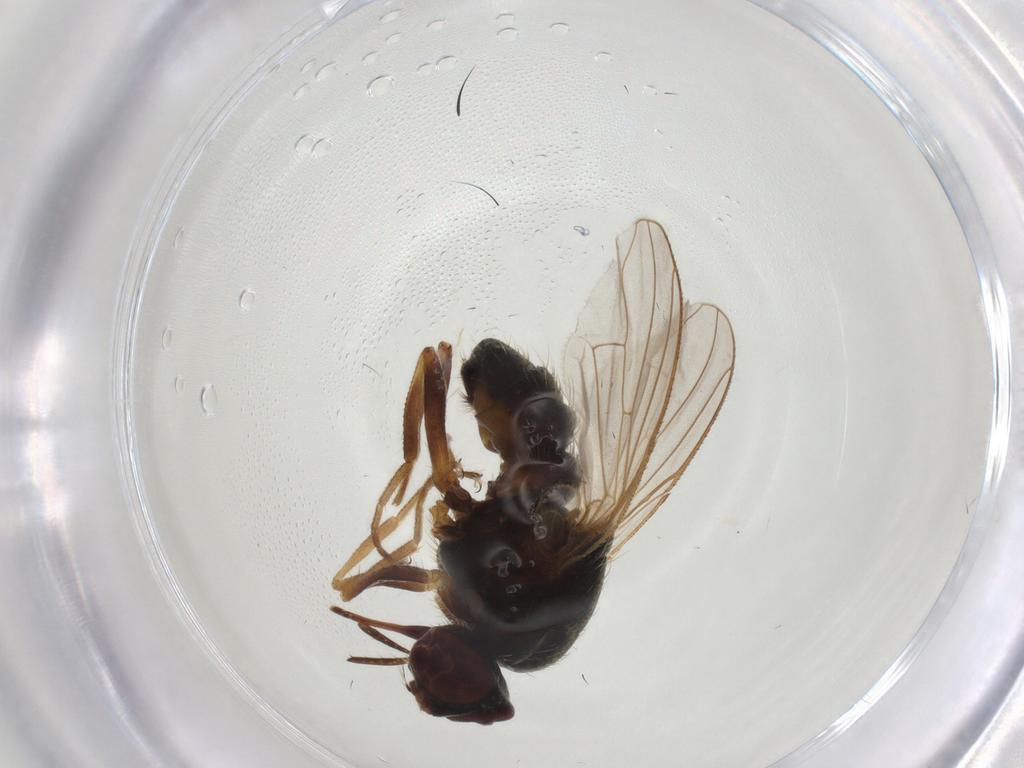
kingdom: Animalia
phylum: Arthropoda
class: Insecta
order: Diptera
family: Muscidae
